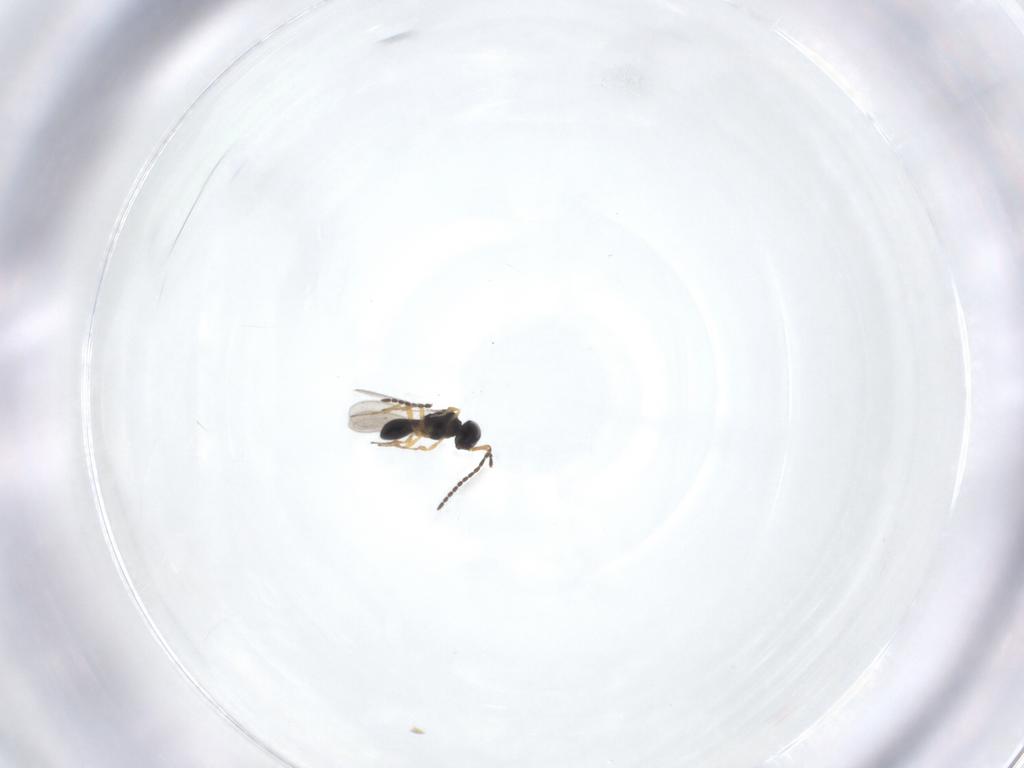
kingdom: Animalia
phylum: Arthropoda
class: Insecta
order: Hymenoptera
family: Scelionidae
